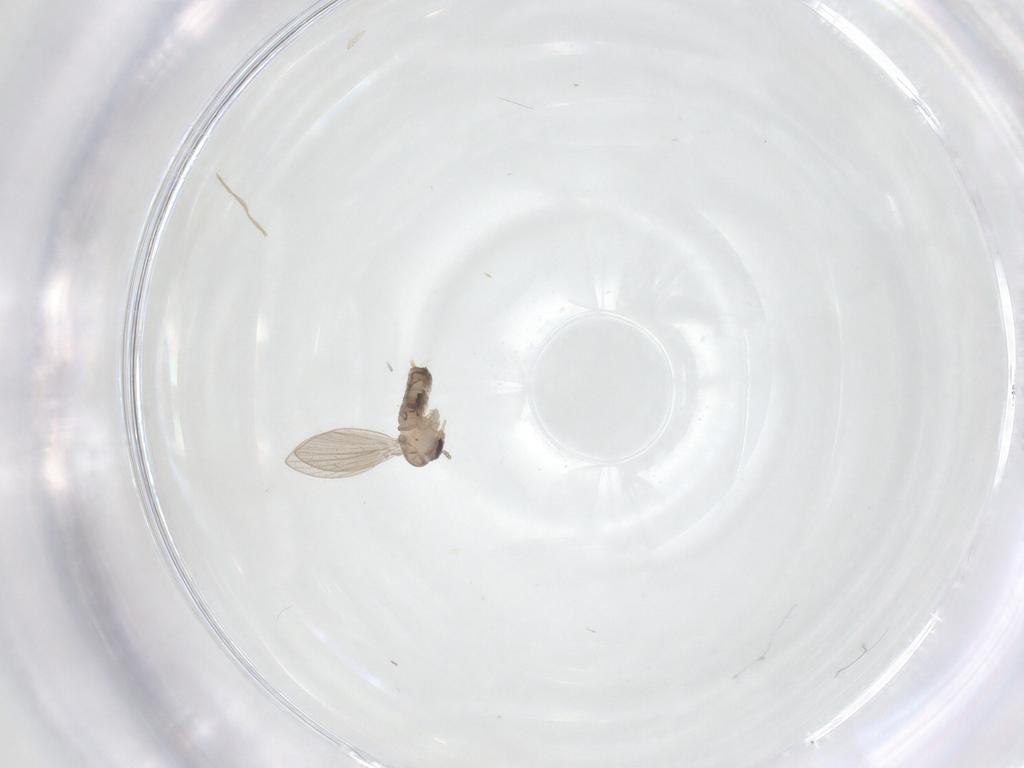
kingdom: Animalia
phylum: Arthropoda
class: Insecta
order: Diptera
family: Psychodidae
